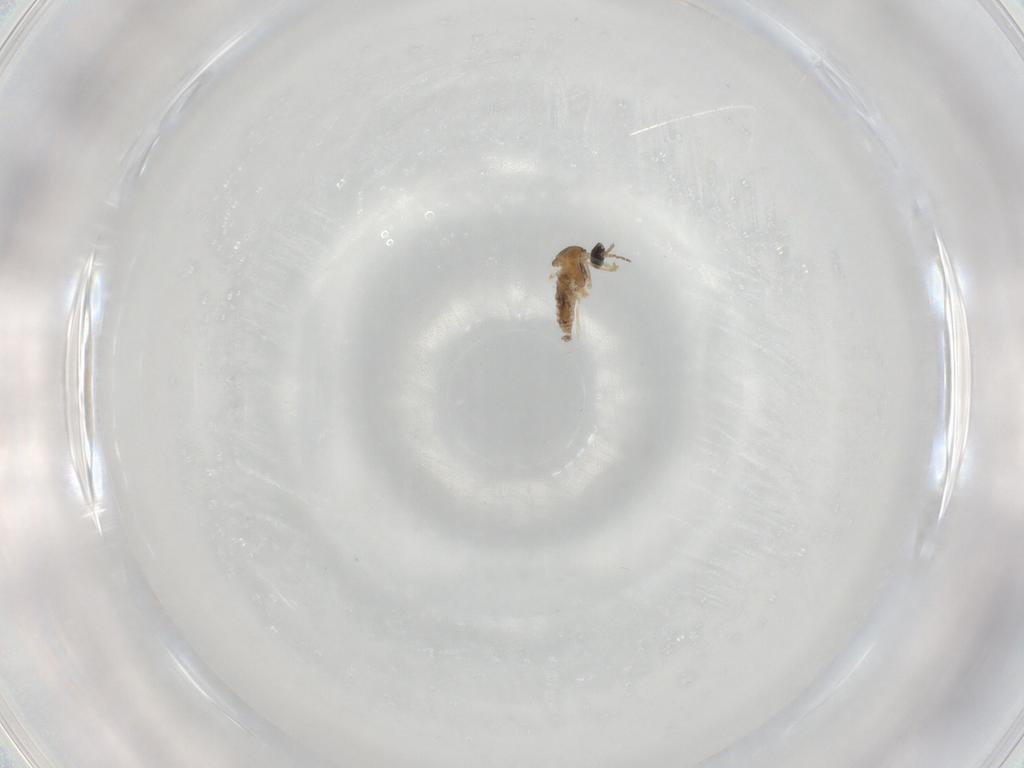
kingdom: Animalia
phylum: Arthropoda
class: Insecta
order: Diptera
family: Cecidomyiidae
